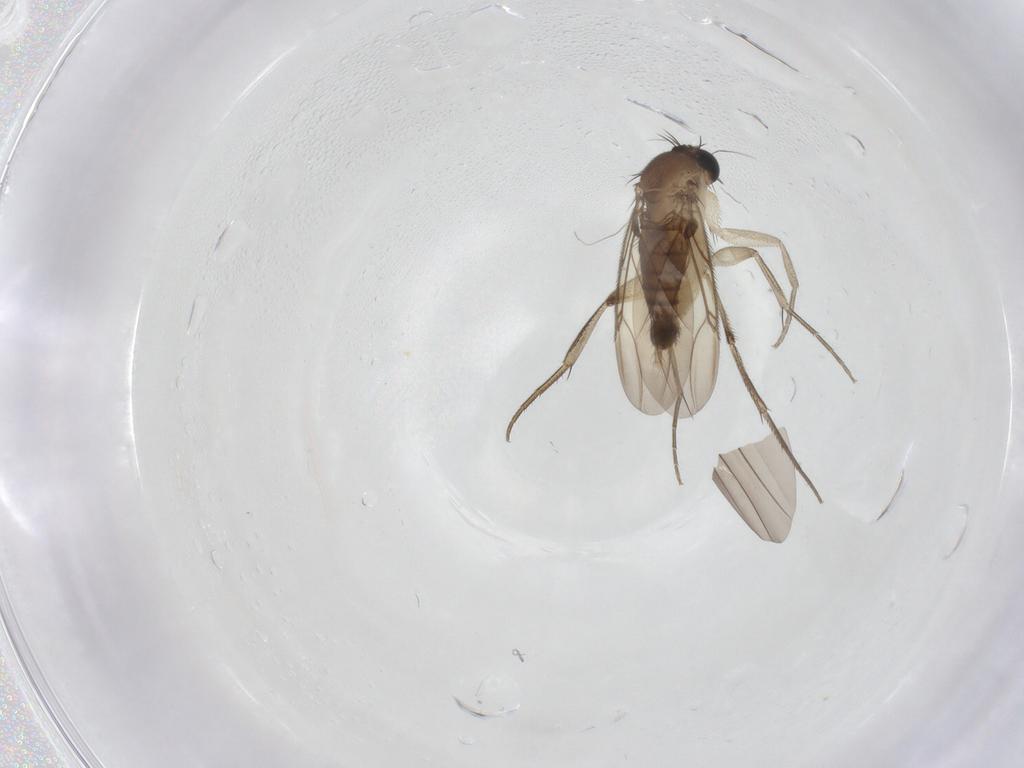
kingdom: Animalia
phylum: Arthropoda
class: Insecta
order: Diptera
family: Phoridae
